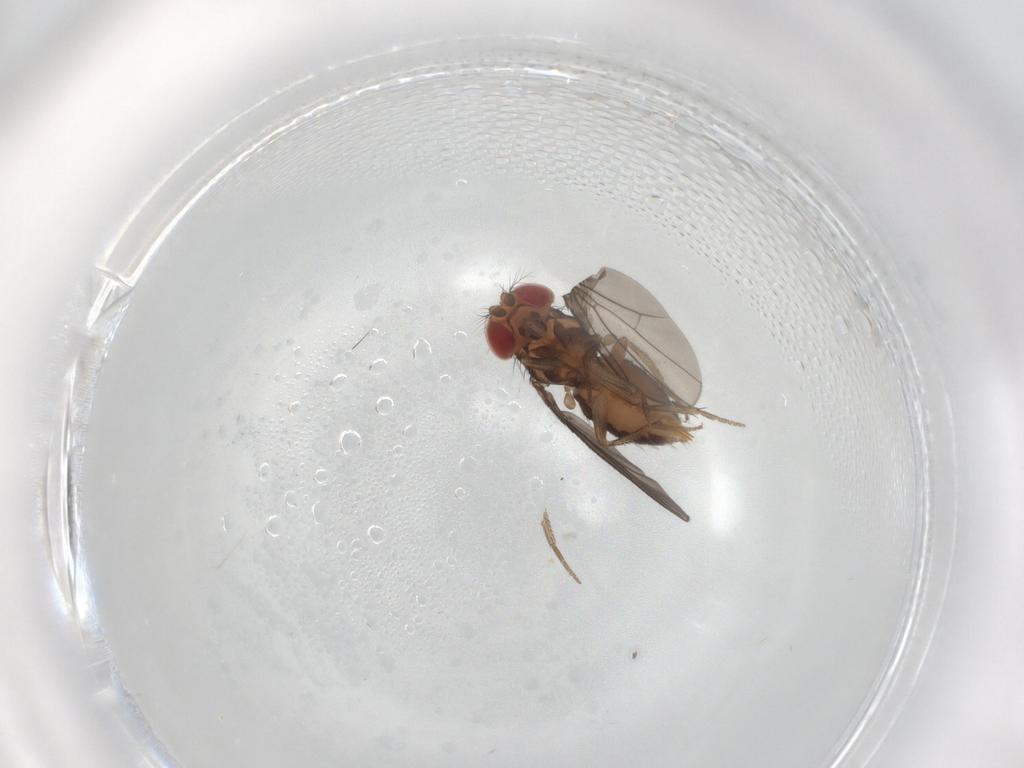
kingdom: Animalia
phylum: Arthropoda
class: Insecta
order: Diptera
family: Drosophilidae
